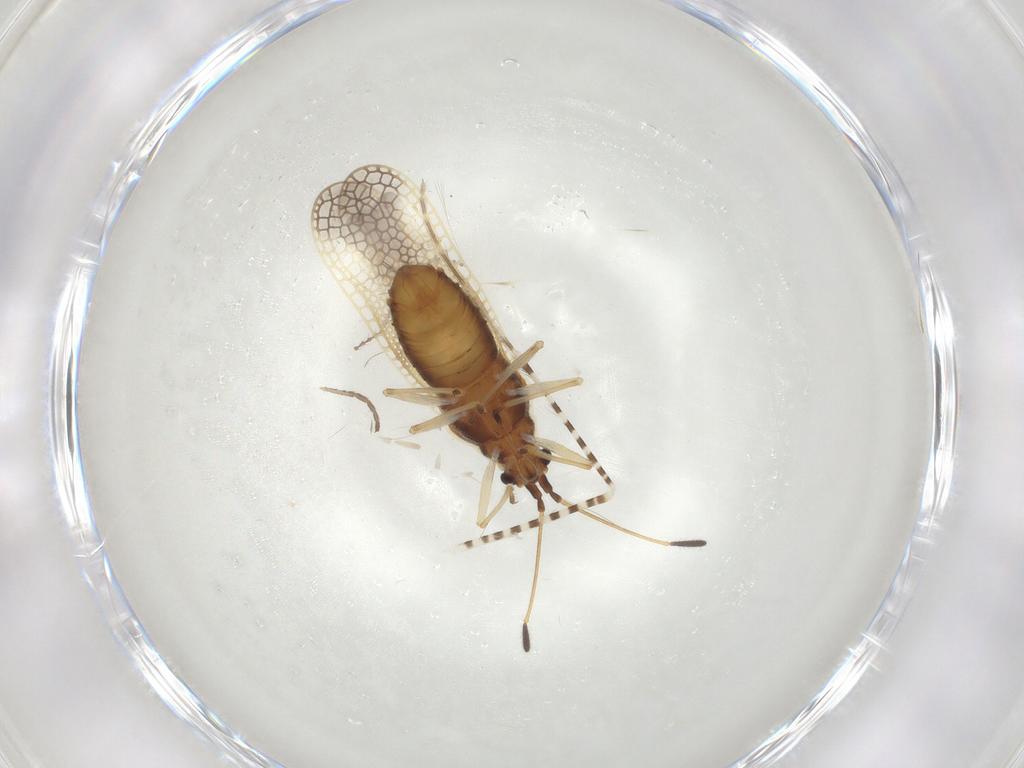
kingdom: Animalia
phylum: Arthropoda
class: Insecta
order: Hemiptera
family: Tingidae
